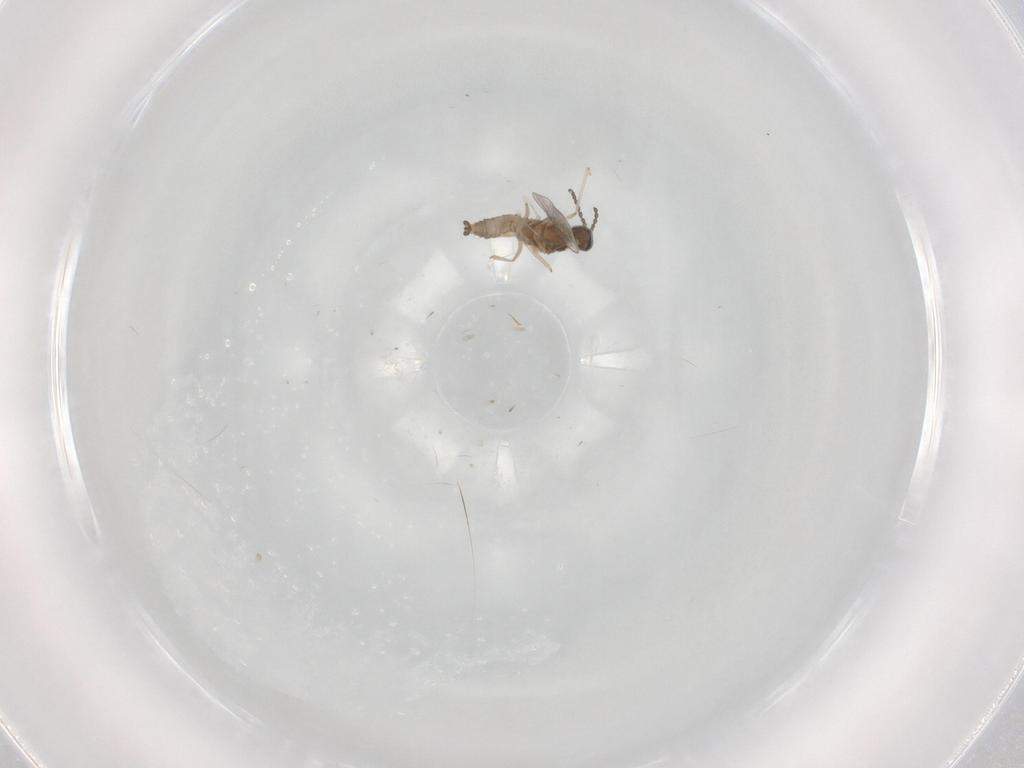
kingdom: Animalia
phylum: Arthropoda
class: Insecta
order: Diptera
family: Cecidomyiidae
